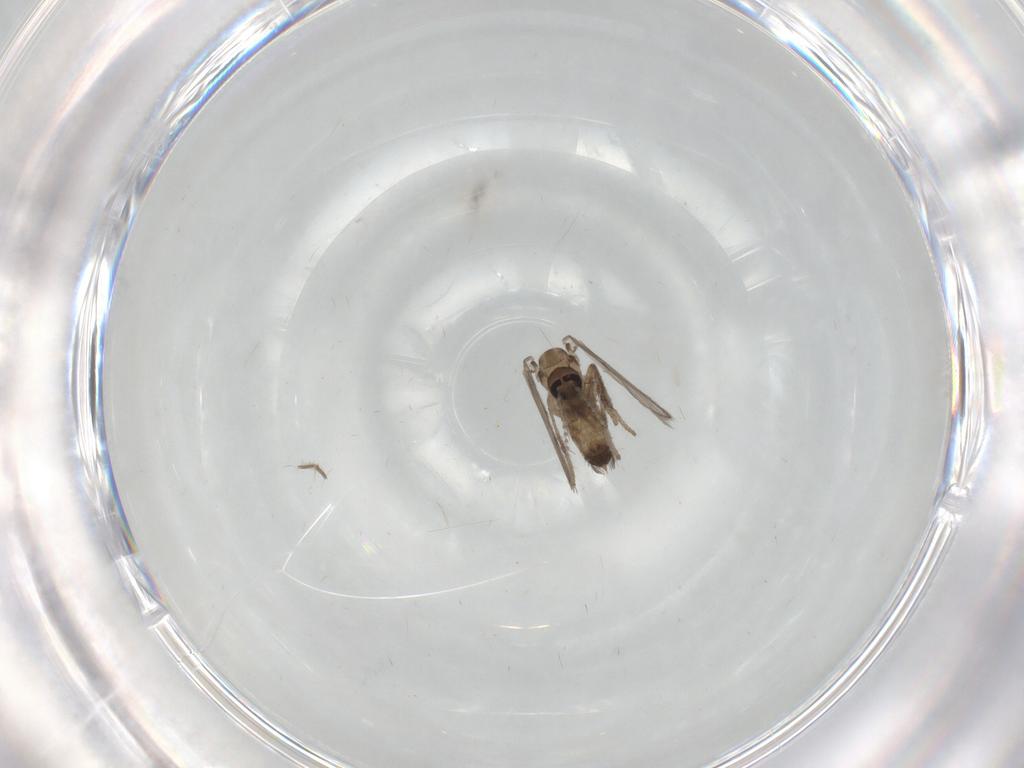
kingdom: Animalia
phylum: Arthropoda
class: Insecta
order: Diptera
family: Psychodidae
